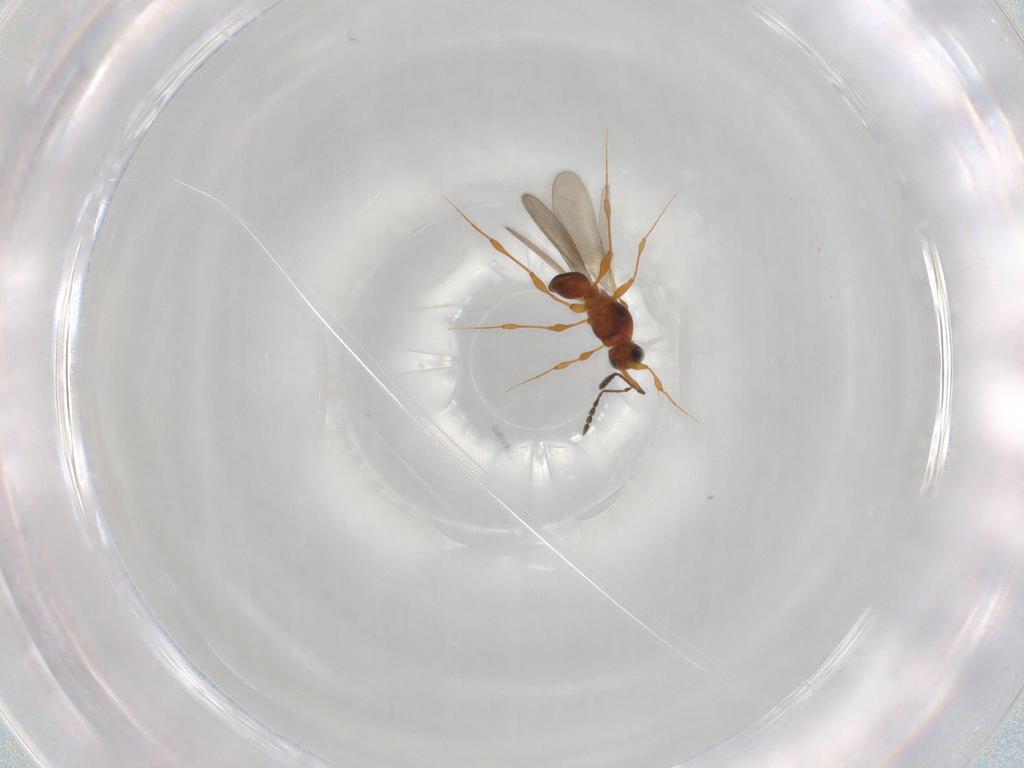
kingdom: Animalia
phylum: Arthropoda
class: Insecta
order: Hymenoptera
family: Platygastridae
